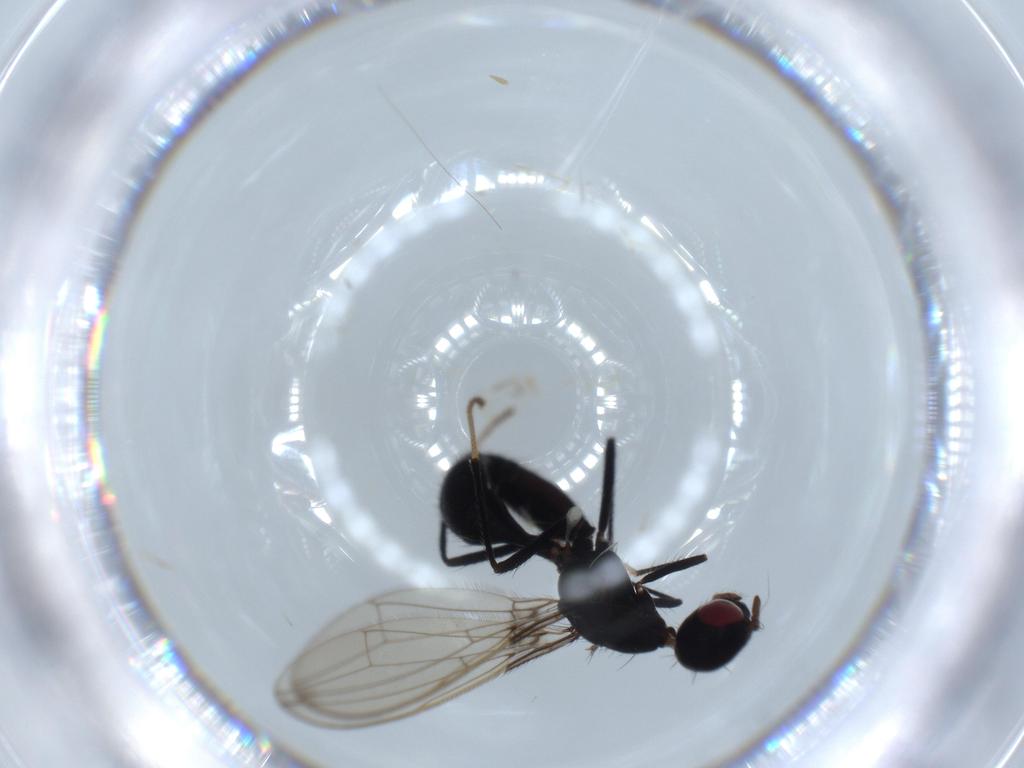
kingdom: Animalia
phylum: Arthropoda
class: Insecta
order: Diptera
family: Richardiidae
